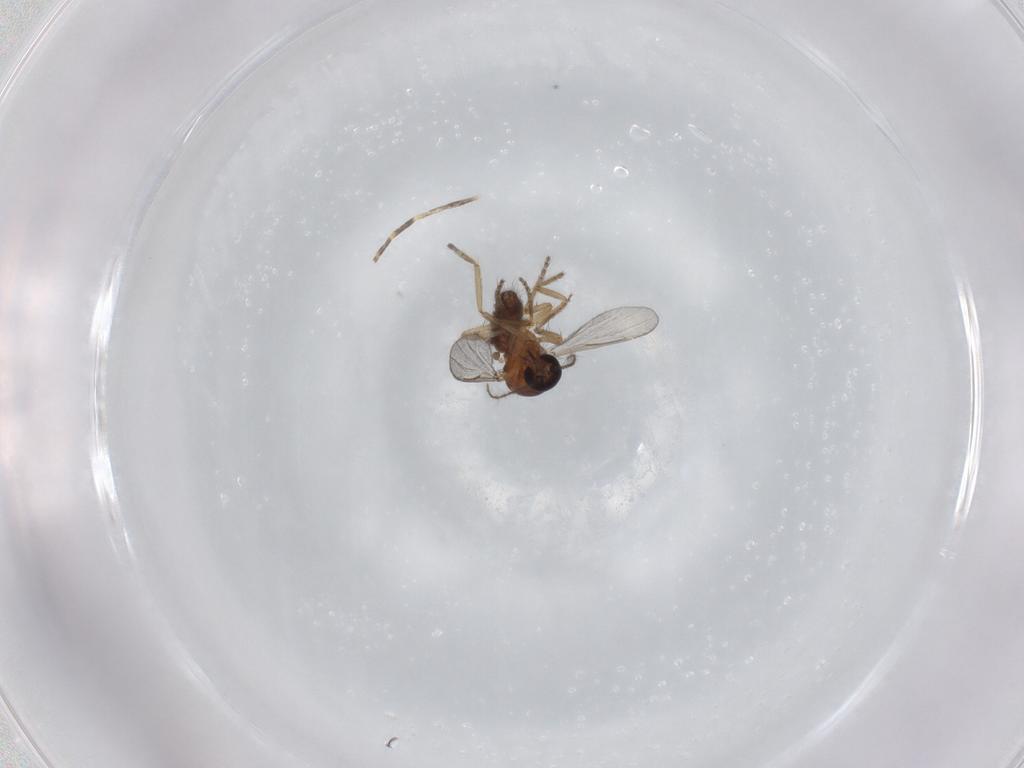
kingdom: Animalia
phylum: Arthropoda
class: Insecta
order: Diptera
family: Ceratopogonidae
